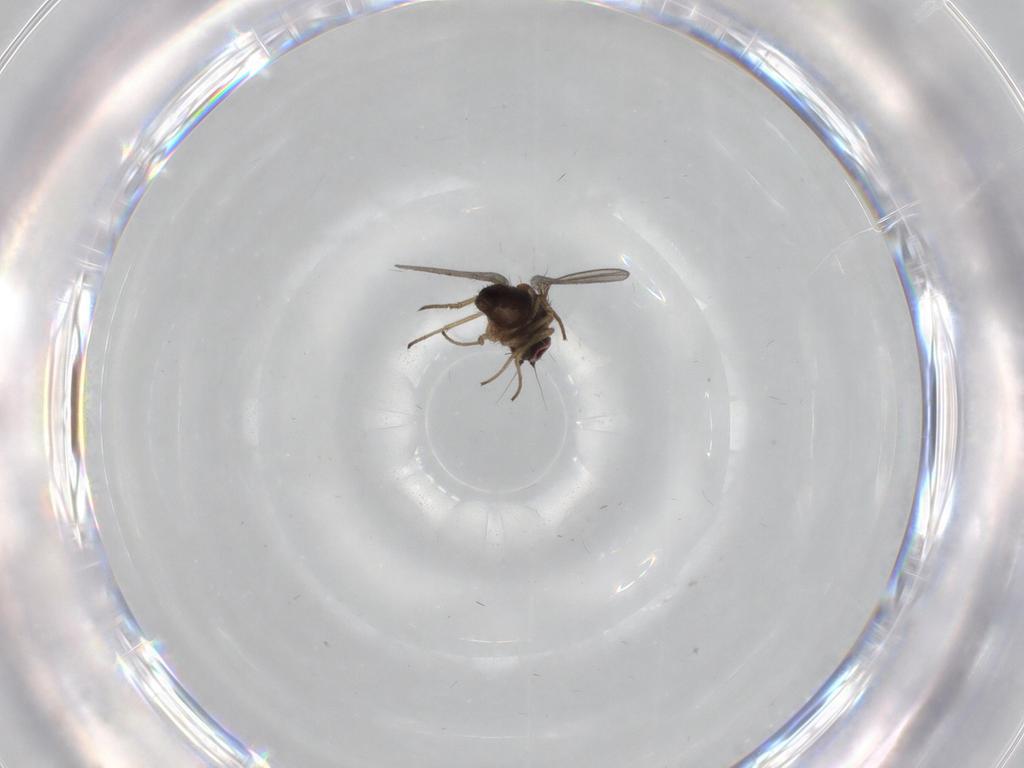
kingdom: Animalia
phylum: Arthropoda
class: Insecta
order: Diptera
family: Dolichopodidae
